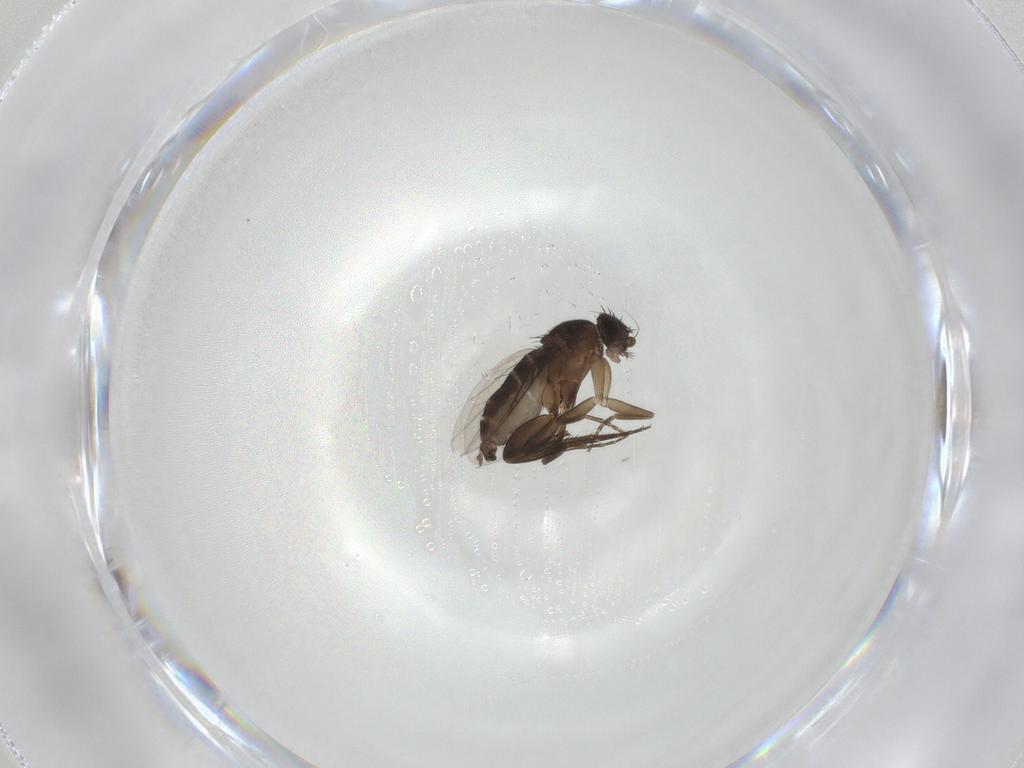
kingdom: Animalia
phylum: Arthropoda
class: Insecta
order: Diptera
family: Phoridae
